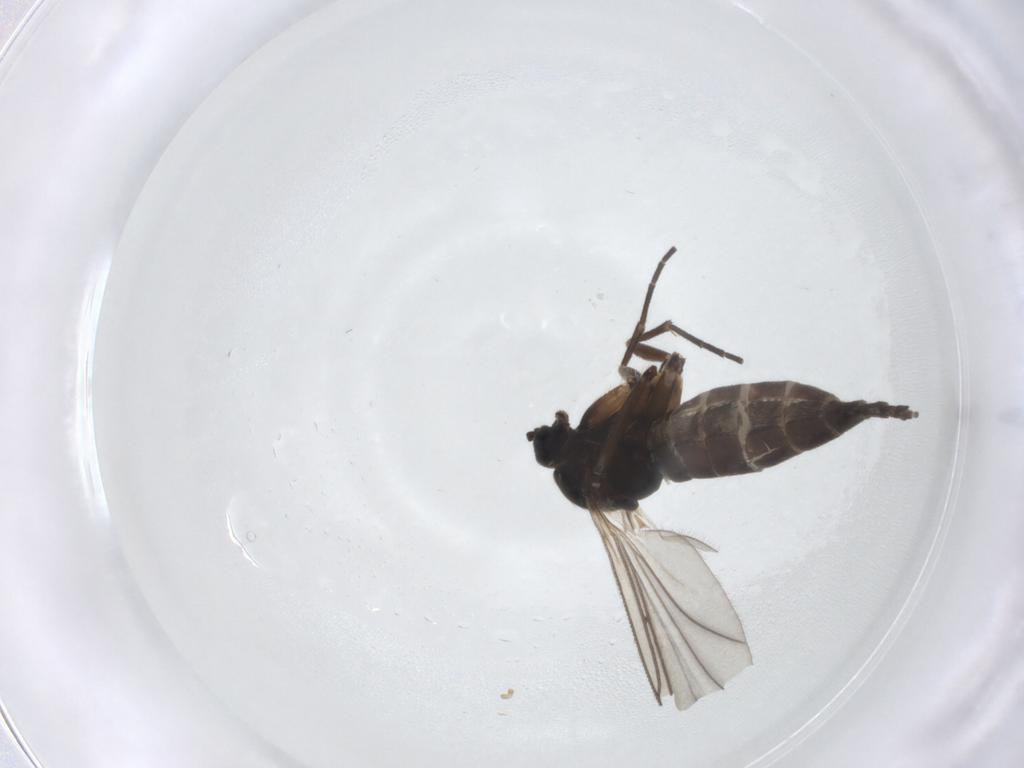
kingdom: Animalia
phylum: Arthropoda
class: Insecta
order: Diptera
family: Sciaridae
